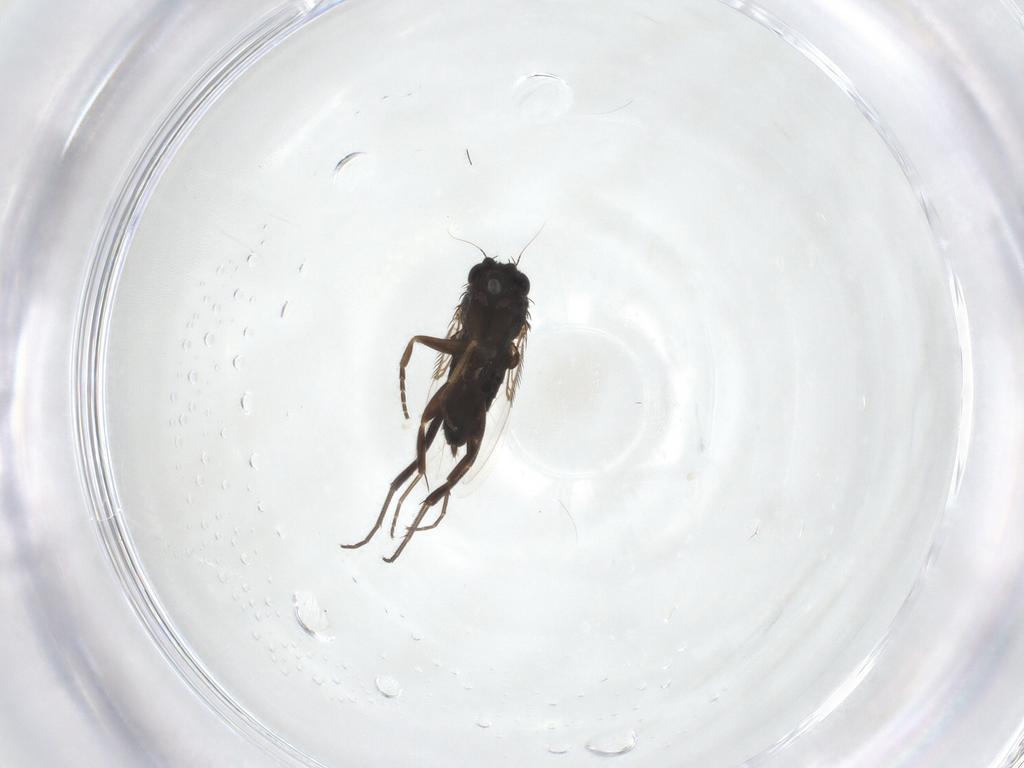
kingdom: Animalia
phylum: Arthropoda
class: Insecta
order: Diptera
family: Phoridae
